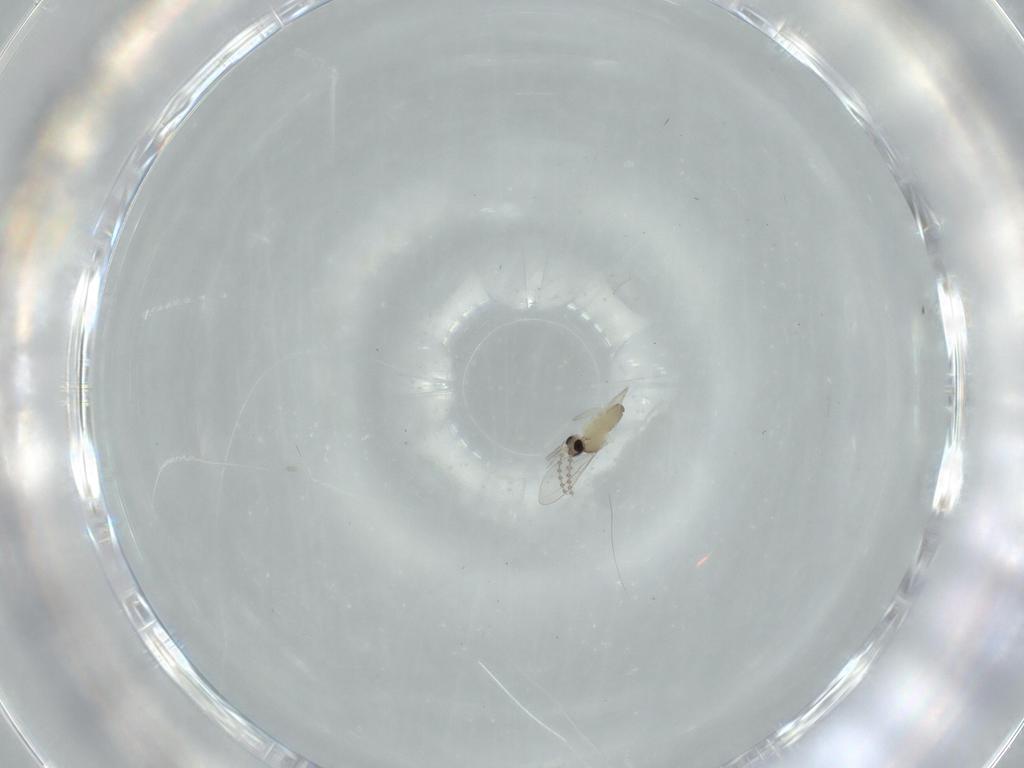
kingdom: Animalia
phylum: Arthropoda
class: Insecta
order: Diptera
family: Cecidomyiidae
